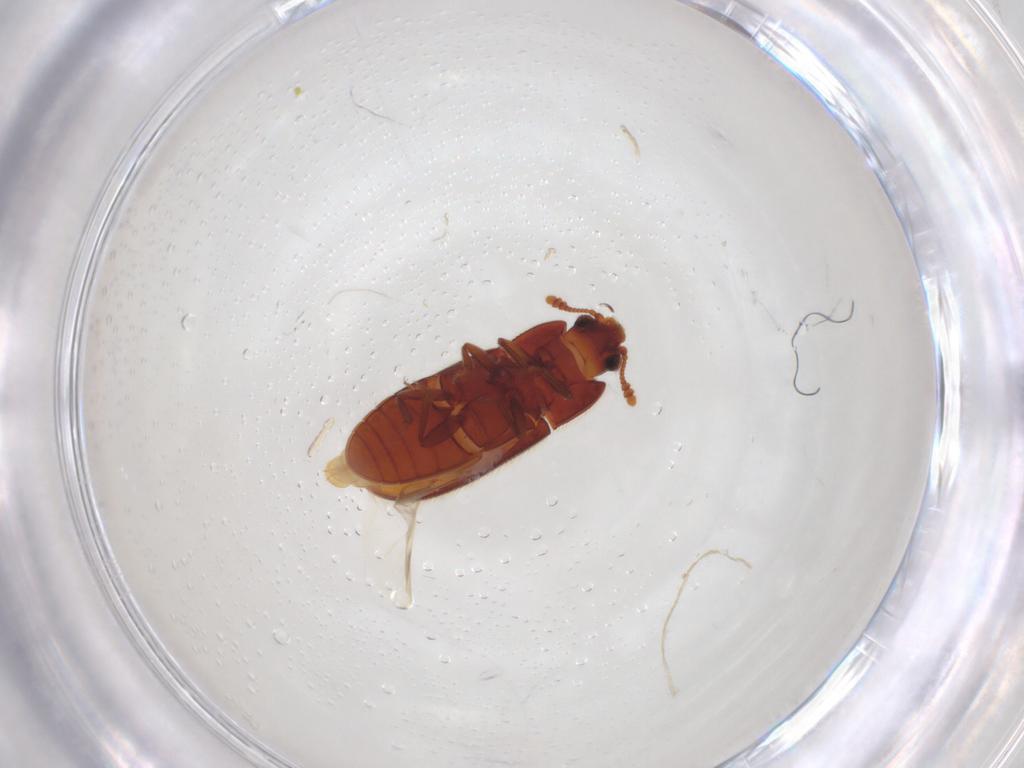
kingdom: Animalia
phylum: Arthropoda
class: Insecta
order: Coleoptera
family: Biphyllidae
